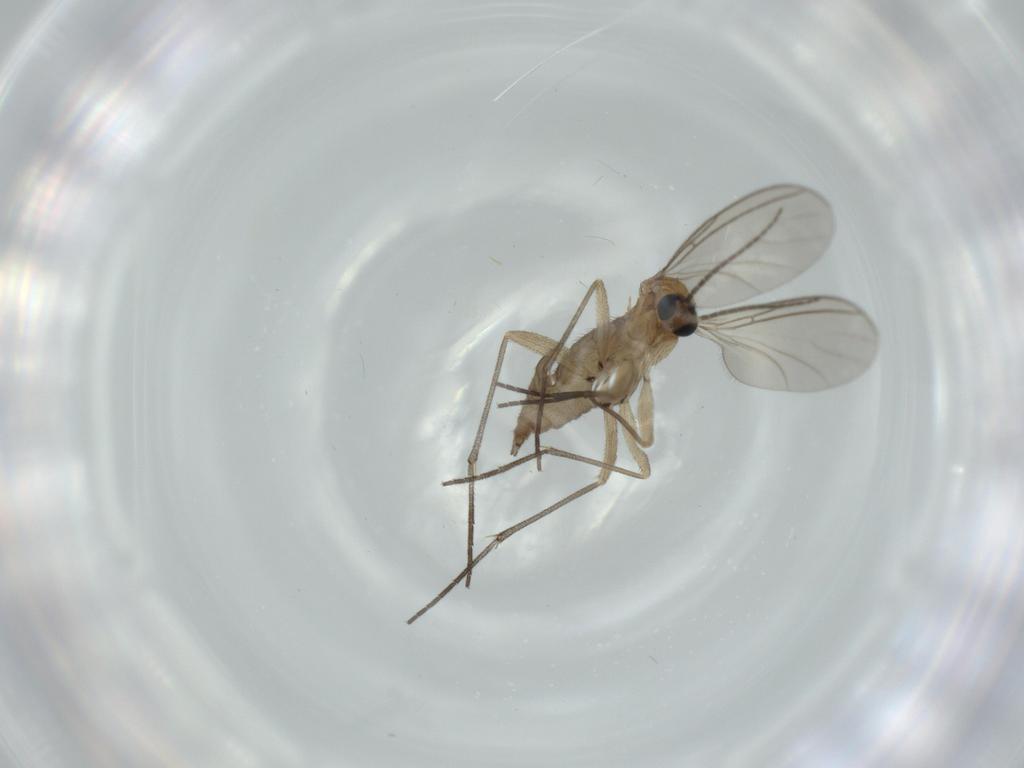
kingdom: Animalia
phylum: Arthropoda
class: Insecta
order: Diptera
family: Sciaridae
